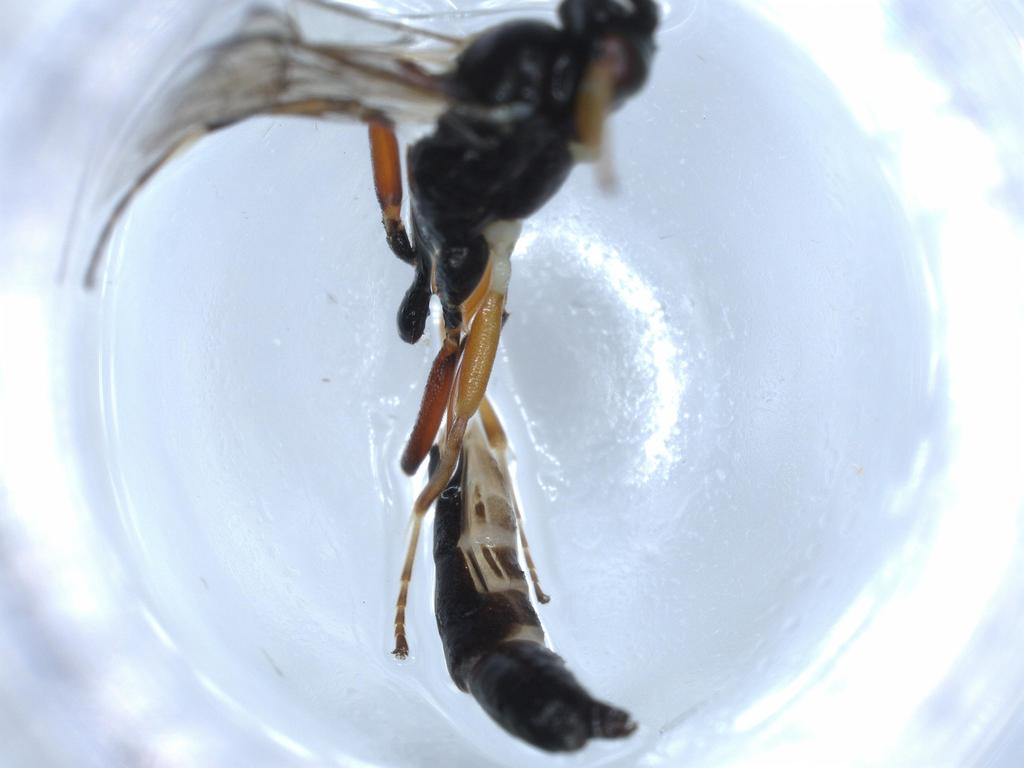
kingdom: Animalia
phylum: Arthropoda
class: Insecta
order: Hymenoptera
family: Ichneumonidae
